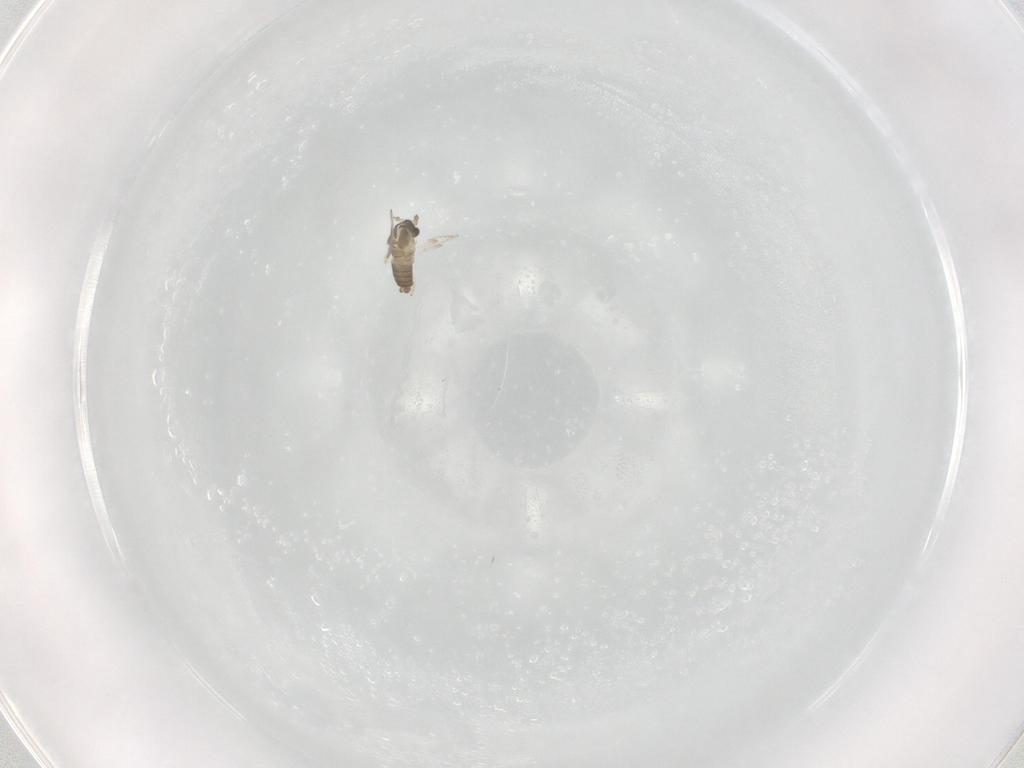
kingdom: Animalia
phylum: Arthropoda
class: Insecta
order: Diptera
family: Cecidomyiidae
